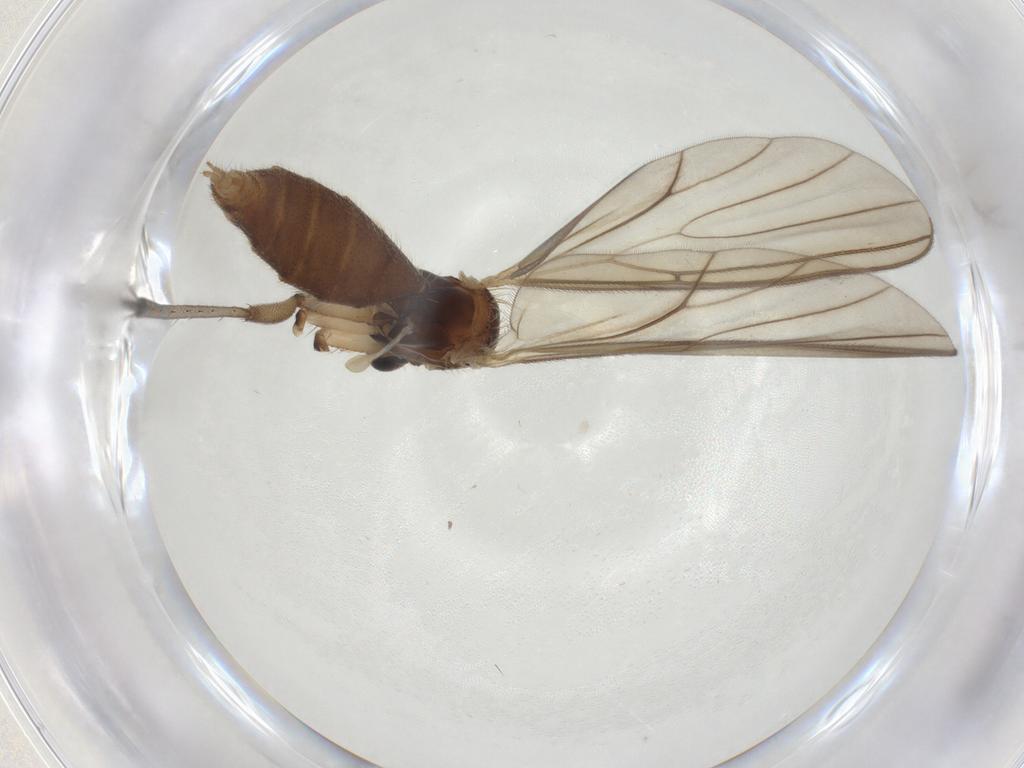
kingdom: Animalia
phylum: Arthropoda
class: Insecta
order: Diptera
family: Mycetophilidae
